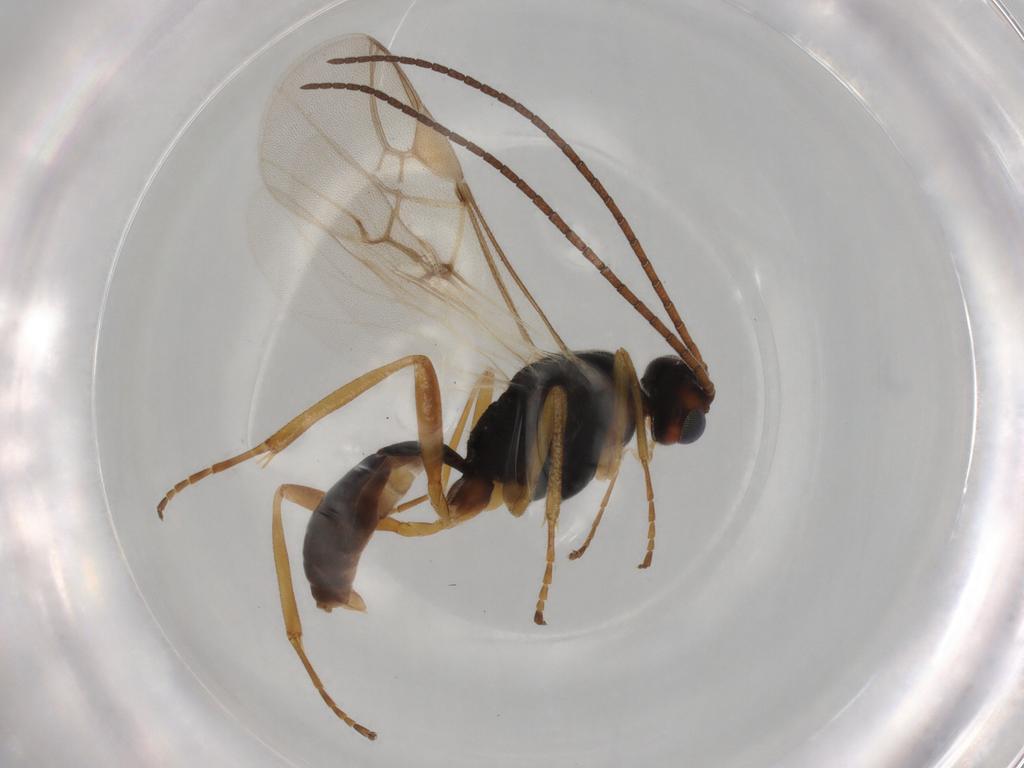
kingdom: Animalia
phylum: Arthropoda
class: Insecta
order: Hymenoptera
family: Braconidae
